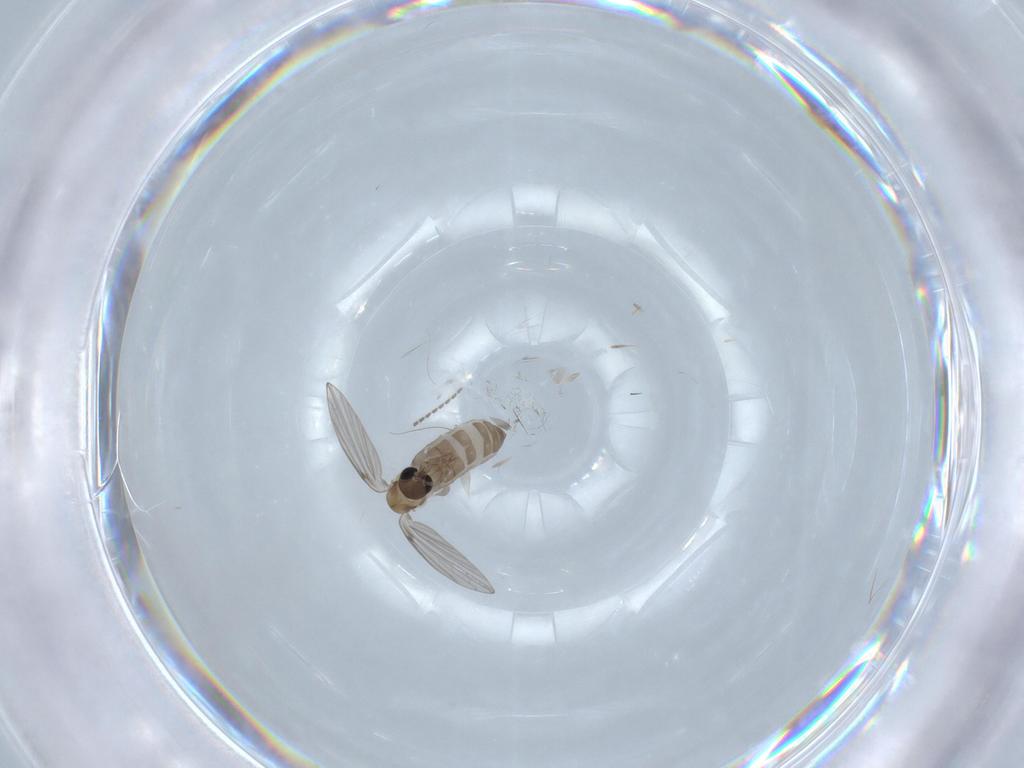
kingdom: Animalia
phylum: Arthropoda
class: Insecta
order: Diptera
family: Psychodidae
